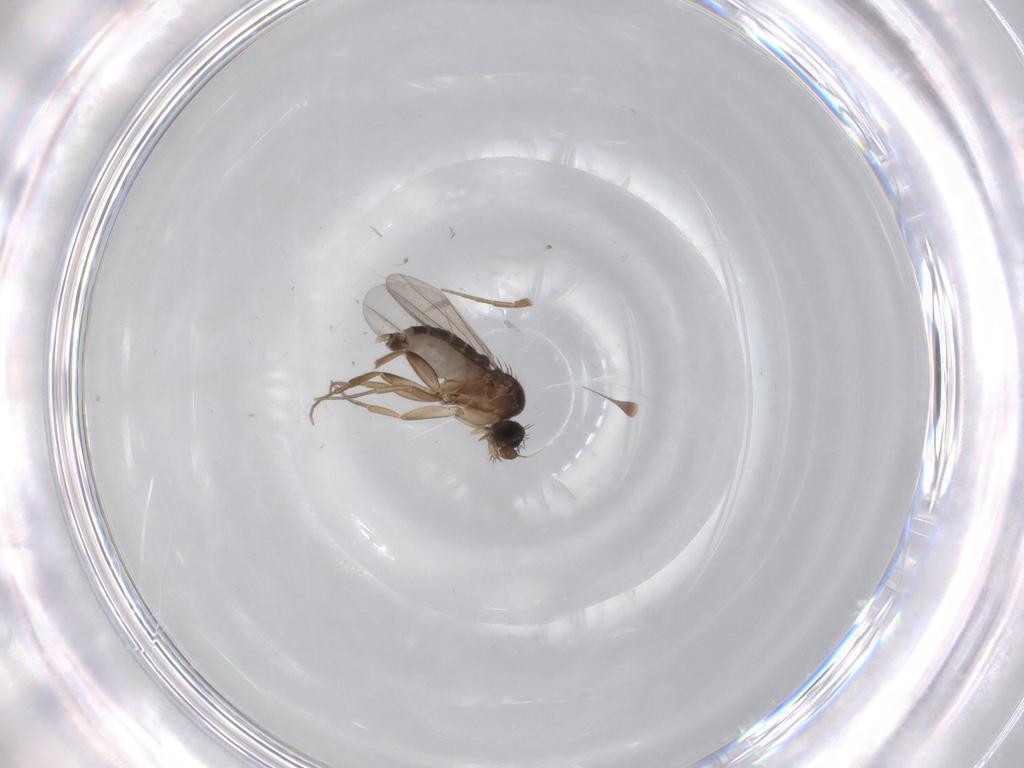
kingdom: Animalia
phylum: Arthropoda
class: Insecta
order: Diptera
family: Phoridae
